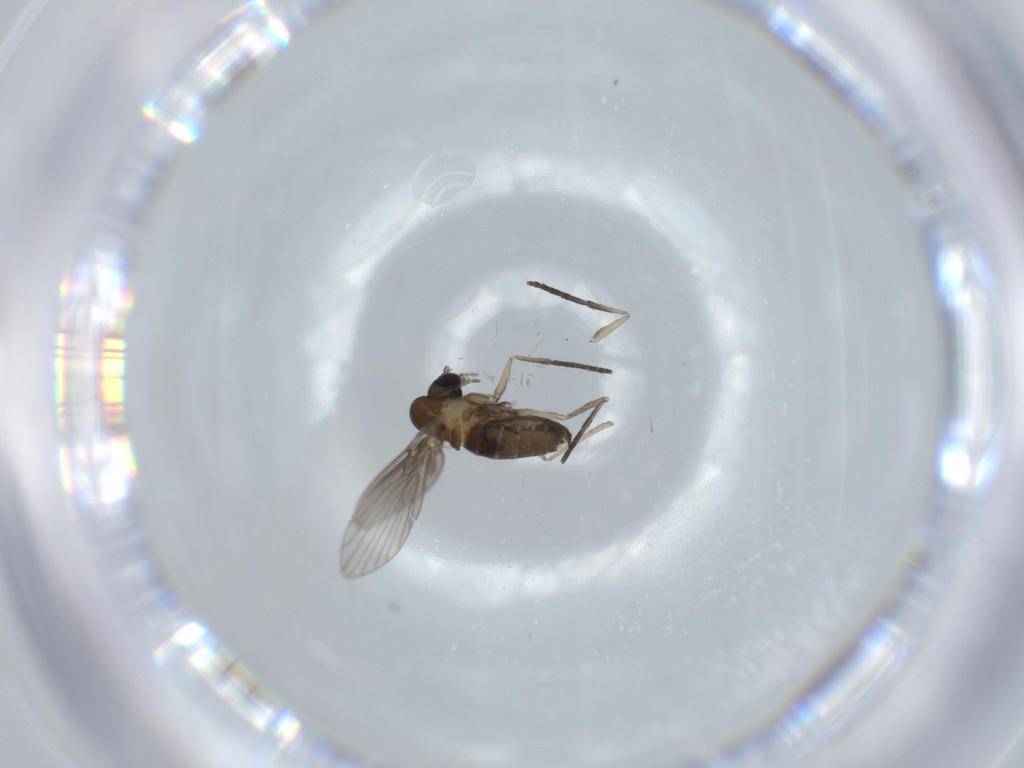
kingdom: Animalia
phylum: Arthropoda
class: Insecta
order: Diptera
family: Psychodidae
